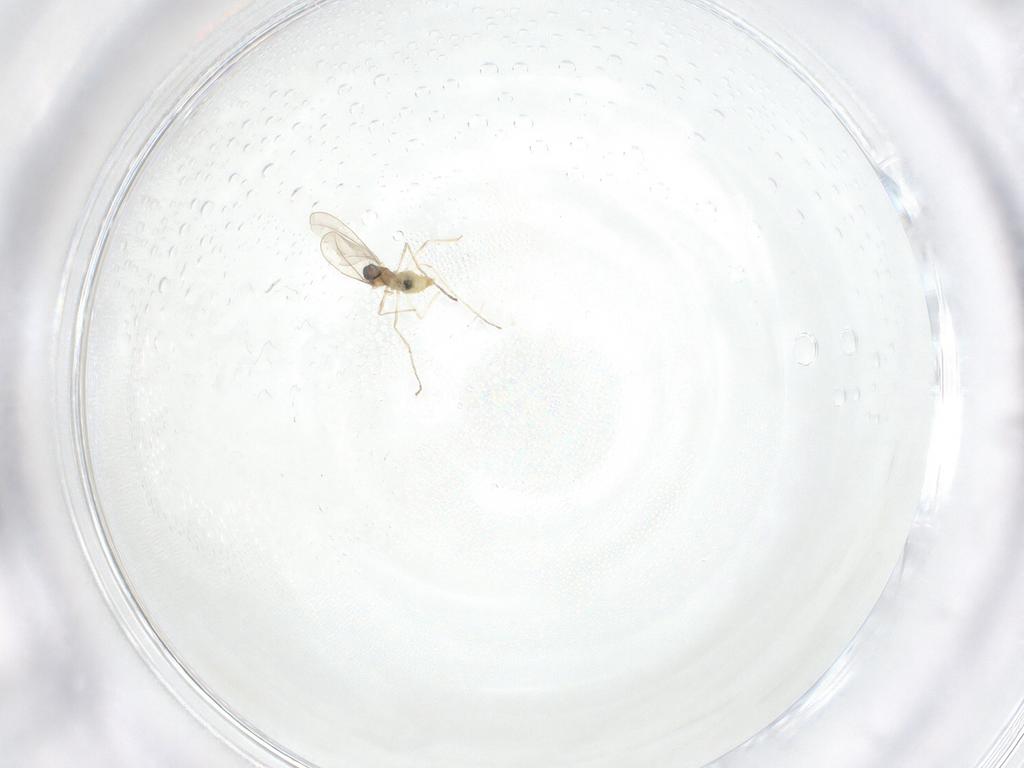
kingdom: Animalia
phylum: Arthropoda
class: Insecta
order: Diptera
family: Cecidomyiidae
